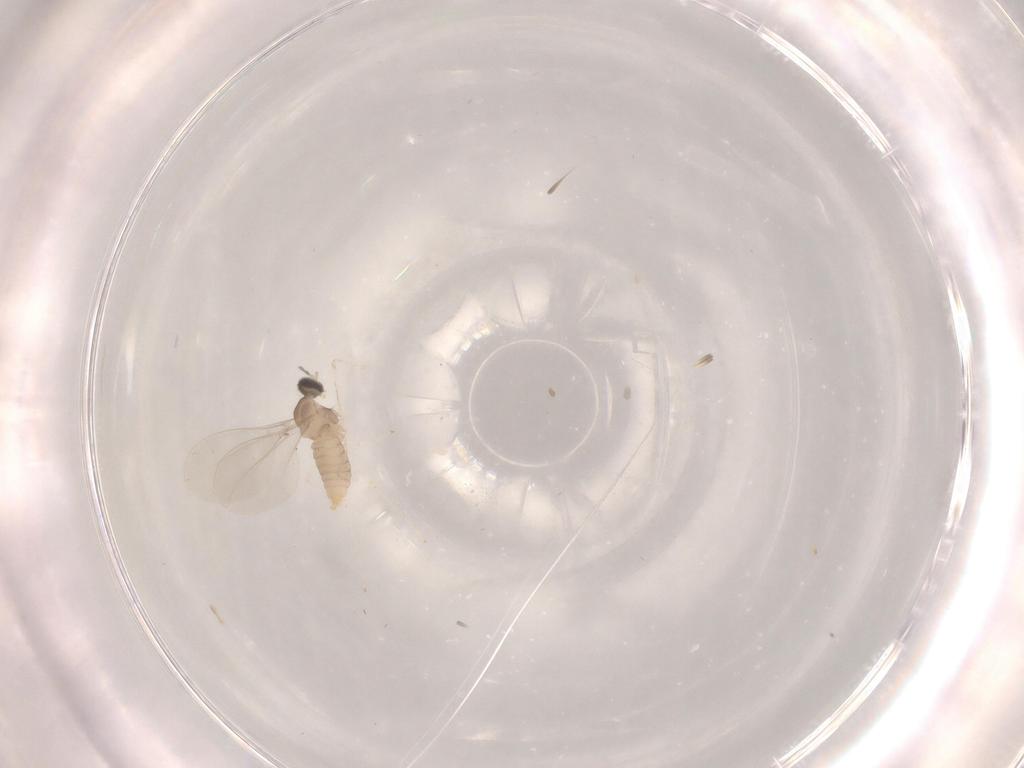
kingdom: Animalia
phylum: Arthropoda
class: Insecta
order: Diptera
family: Cecidomyiidae
